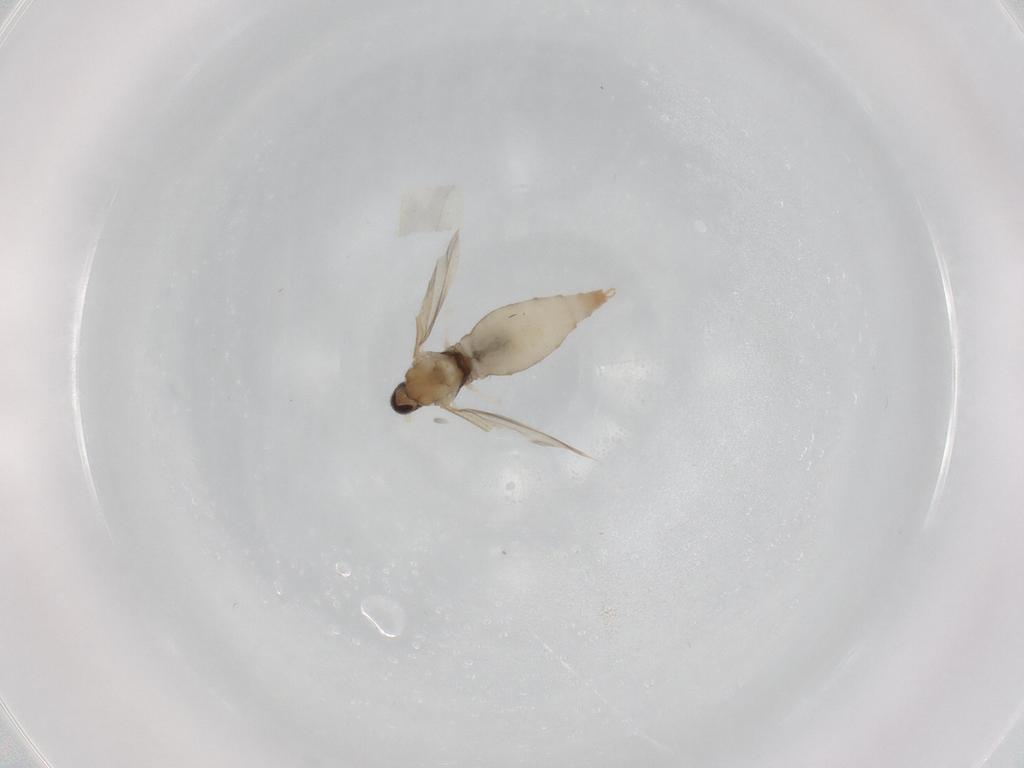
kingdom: Animalia
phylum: Arthropoda
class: Insecta
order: Diptera
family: Cecidomyiidae
